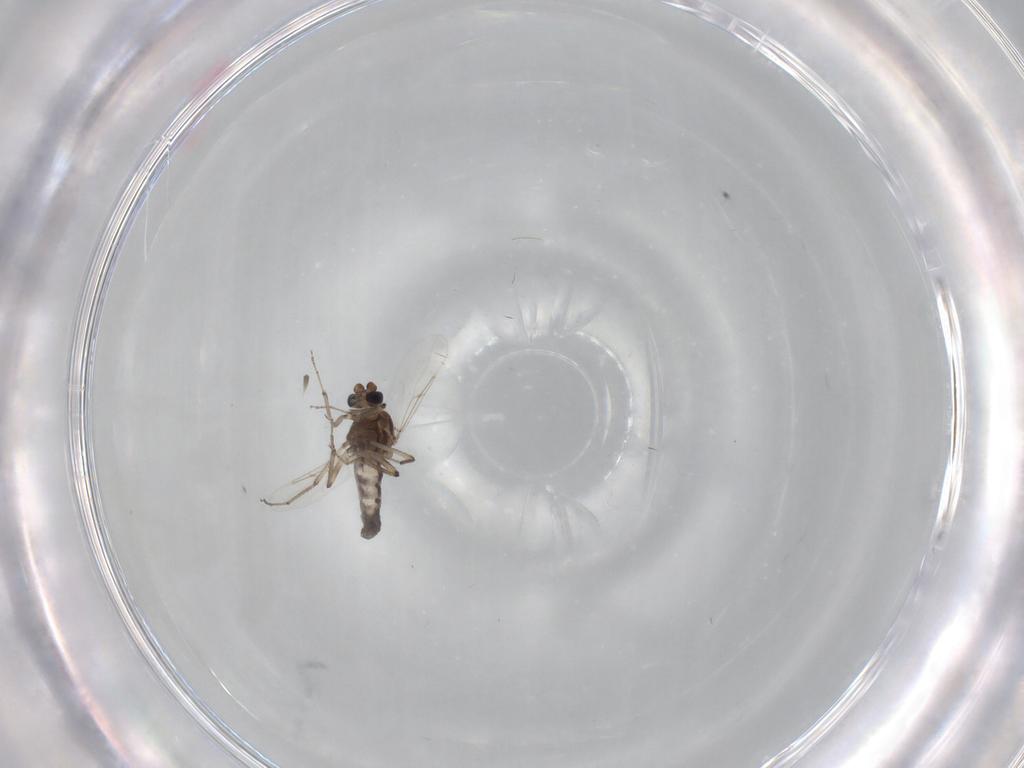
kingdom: Animalia
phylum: Arthropoda
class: Insecta
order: Diptera
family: Ceratopogonidae
